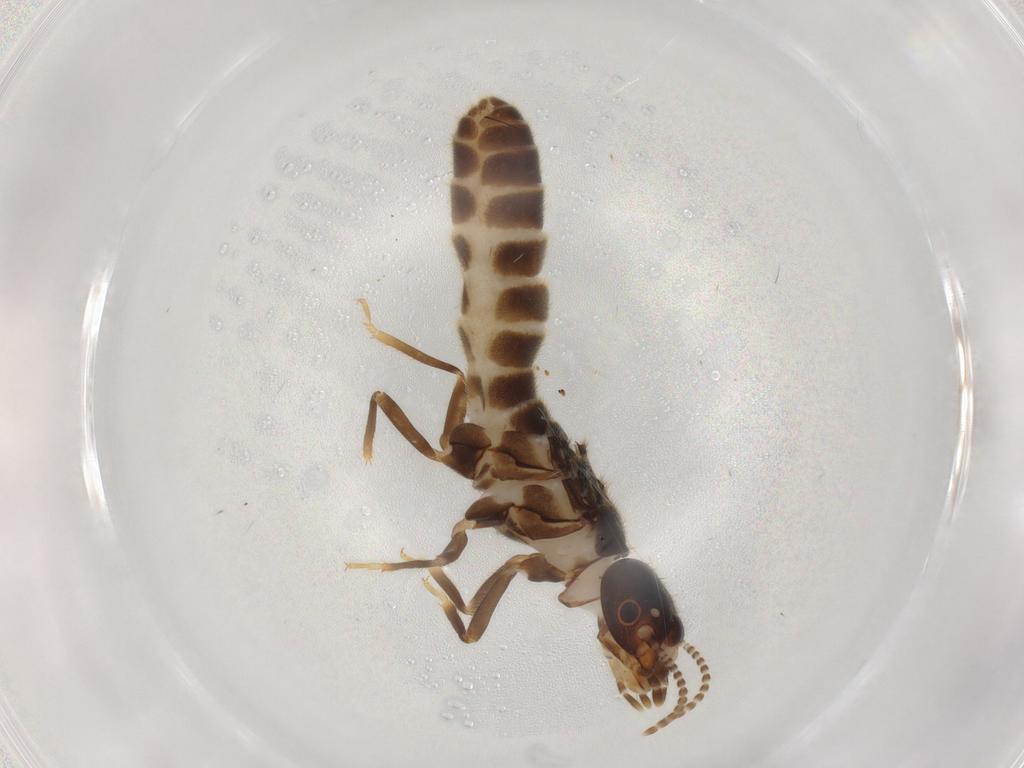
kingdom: Animalia
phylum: Arthropoda
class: Insecta
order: Blattodea
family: Termitidae
